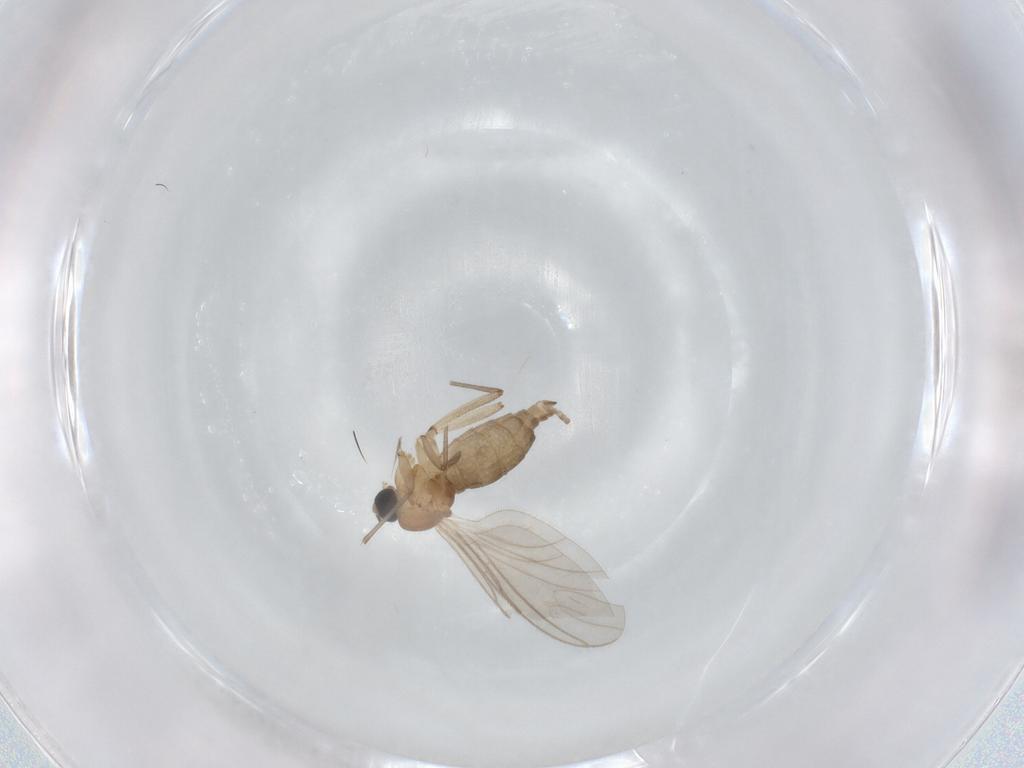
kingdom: Animalia
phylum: Arthropoda
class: Insecta
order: Diptera
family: Sciaridae
